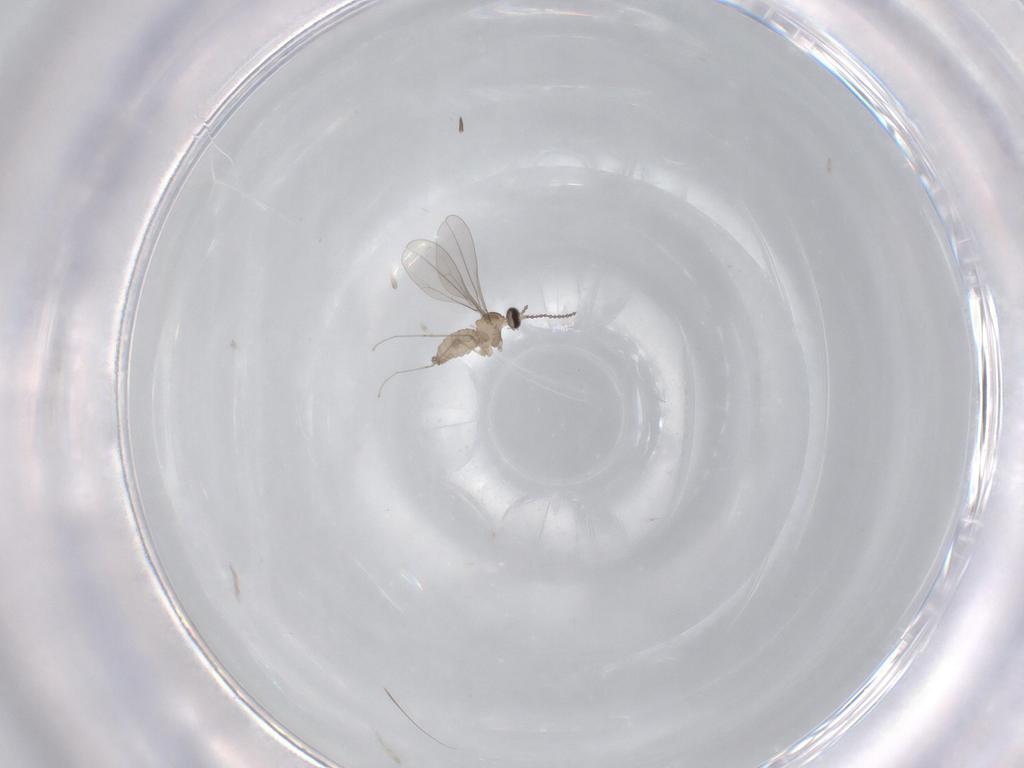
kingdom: Animalia
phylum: Arthropoda
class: Insecta
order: Diptera
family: Cecidomyiidae
